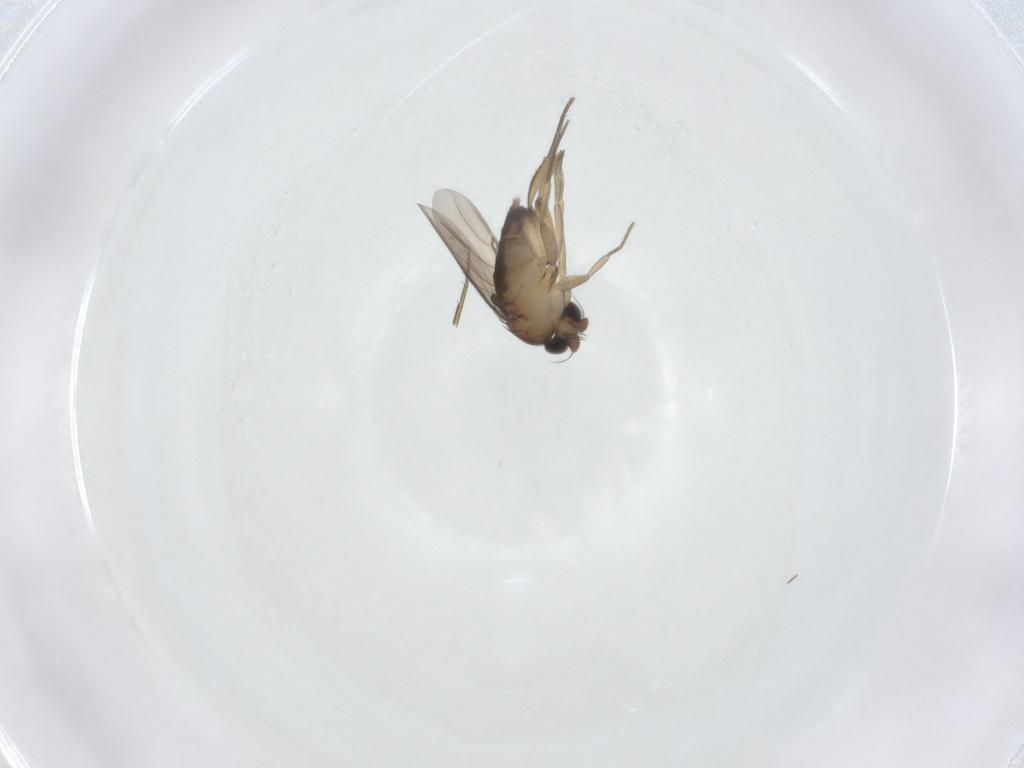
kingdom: Animalia
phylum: Arthropoda
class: Insecta
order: Diptera
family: Phoridae
